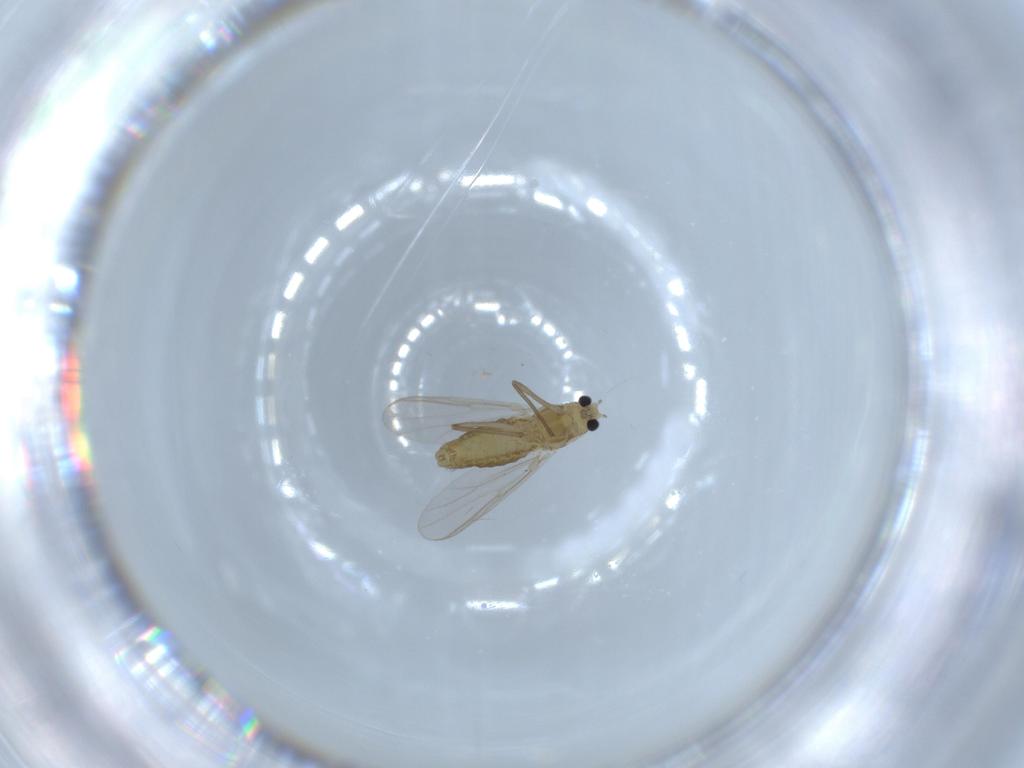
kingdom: Animalia
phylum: Arthropoda
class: Insecta
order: Diptera
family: Chironomidae
